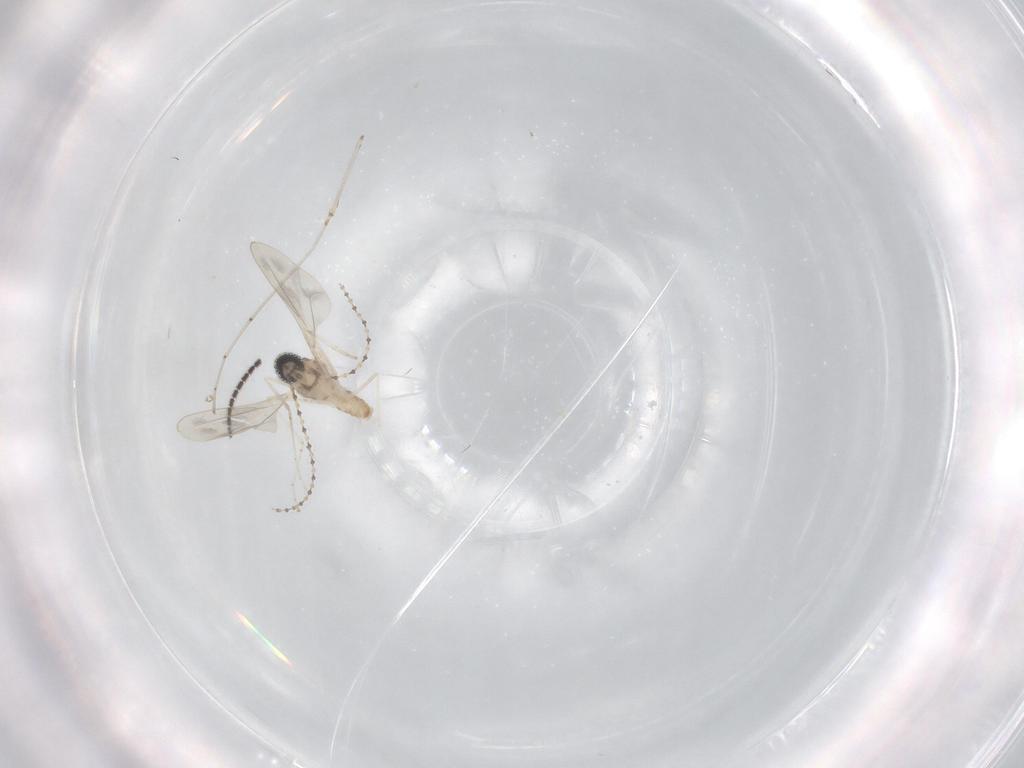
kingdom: Animalia
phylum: Arthropoda
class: Insecta
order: Diptera
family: Cecidomyiidae
